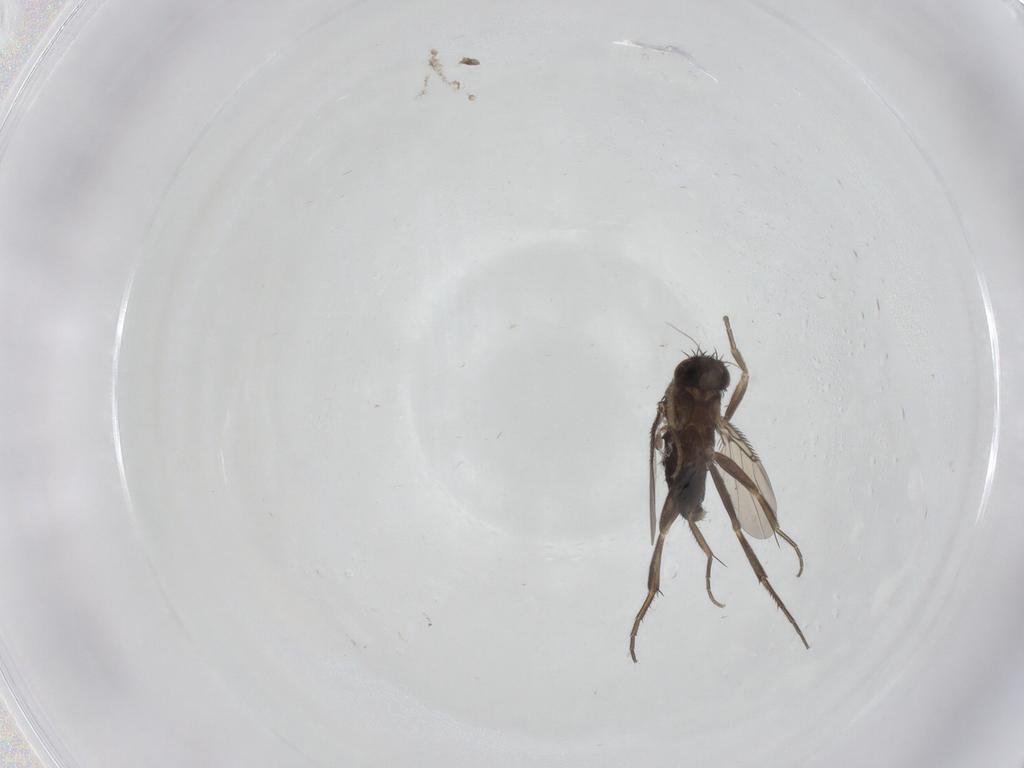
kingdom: Animalia
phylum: Arthropoda
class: Insecta
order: Diptera
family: Phoridae
